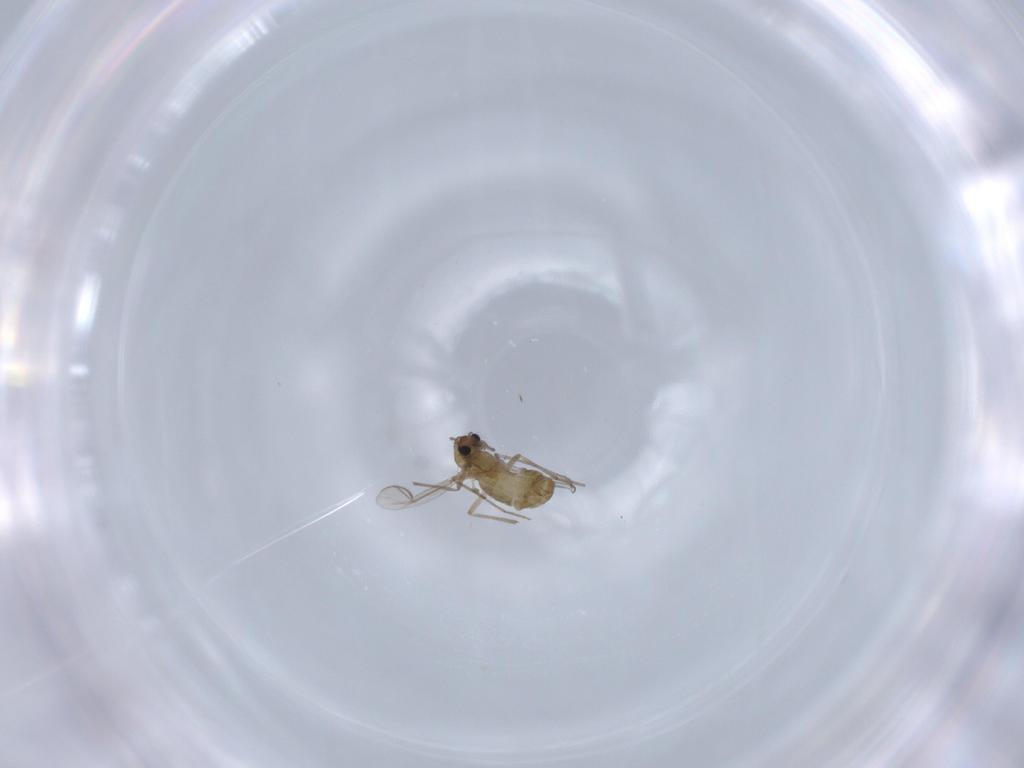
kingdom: Animalia
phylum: Arthropoda
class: Insecta
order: Diptera
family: Chironomidae
